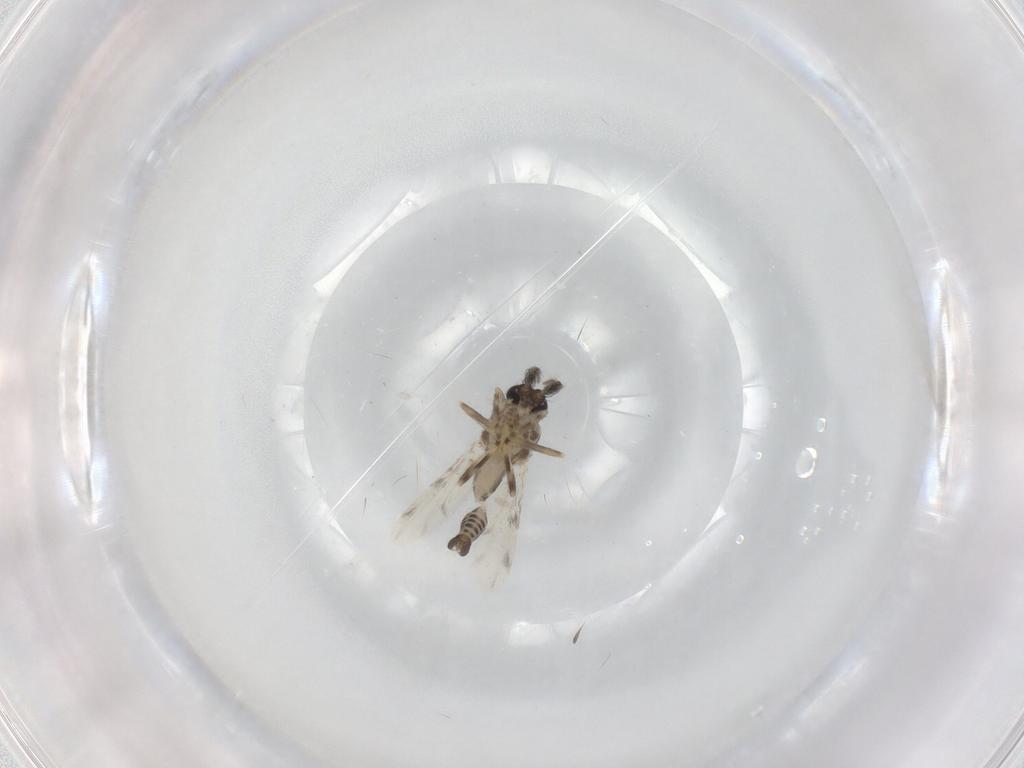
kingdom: Animalia
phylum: Arthropoda
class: Insecta
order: Diptera
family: Ceratopogonidae
